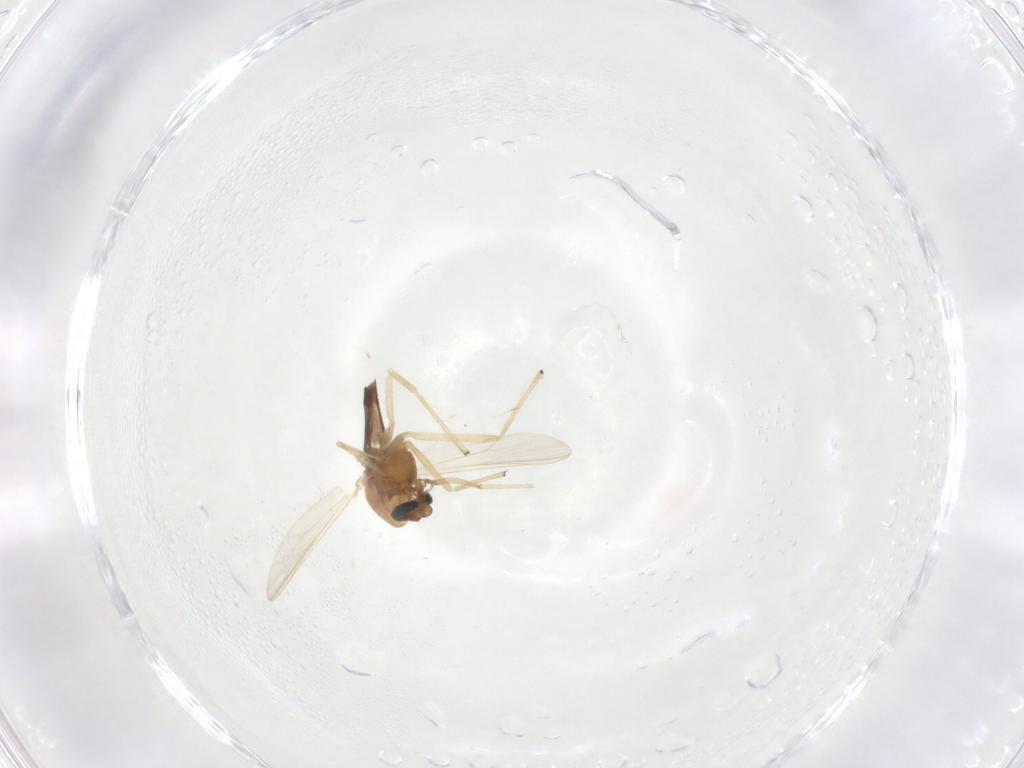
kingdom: Animalia
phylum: Arthropoda
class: Insecta
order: Diptera
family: Chironomidae
